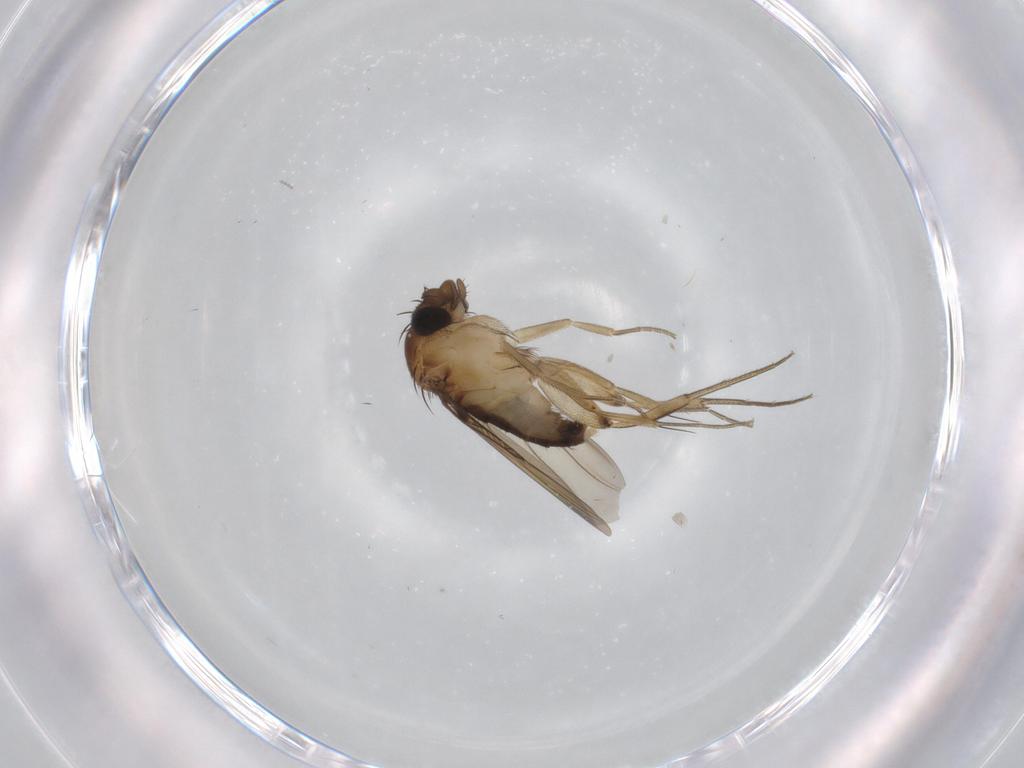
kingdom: Animalia
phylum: Arthropoda
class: Insecta
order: Diptera
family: Phoridae
